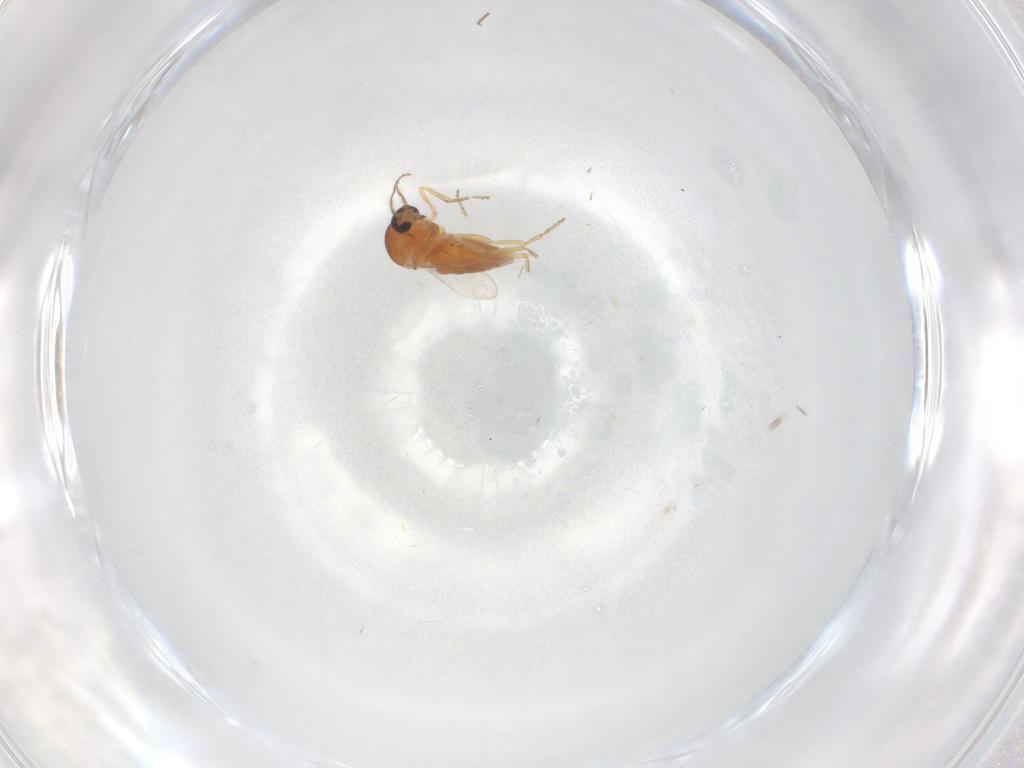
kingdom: Animalia
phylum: Arthropoda
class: Insecta
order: Diptera
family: Ceratopogonidae
